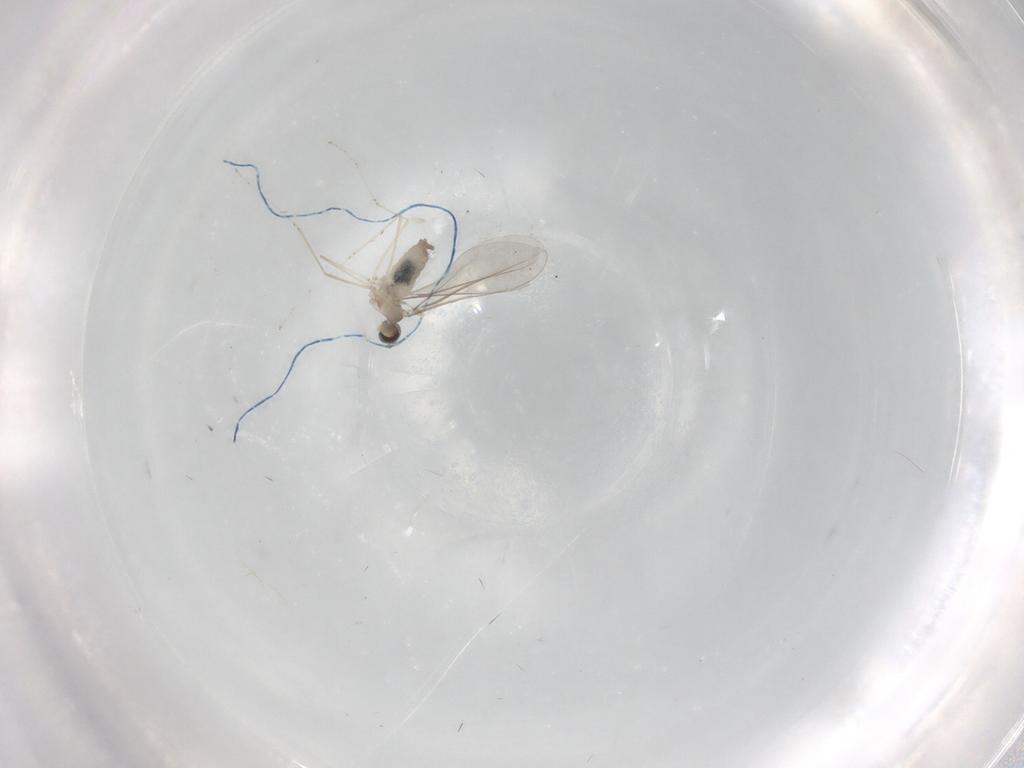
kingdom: Animalia
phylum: Arthropoda
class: Insecta
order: Diptera
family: Cecidomyiidae
